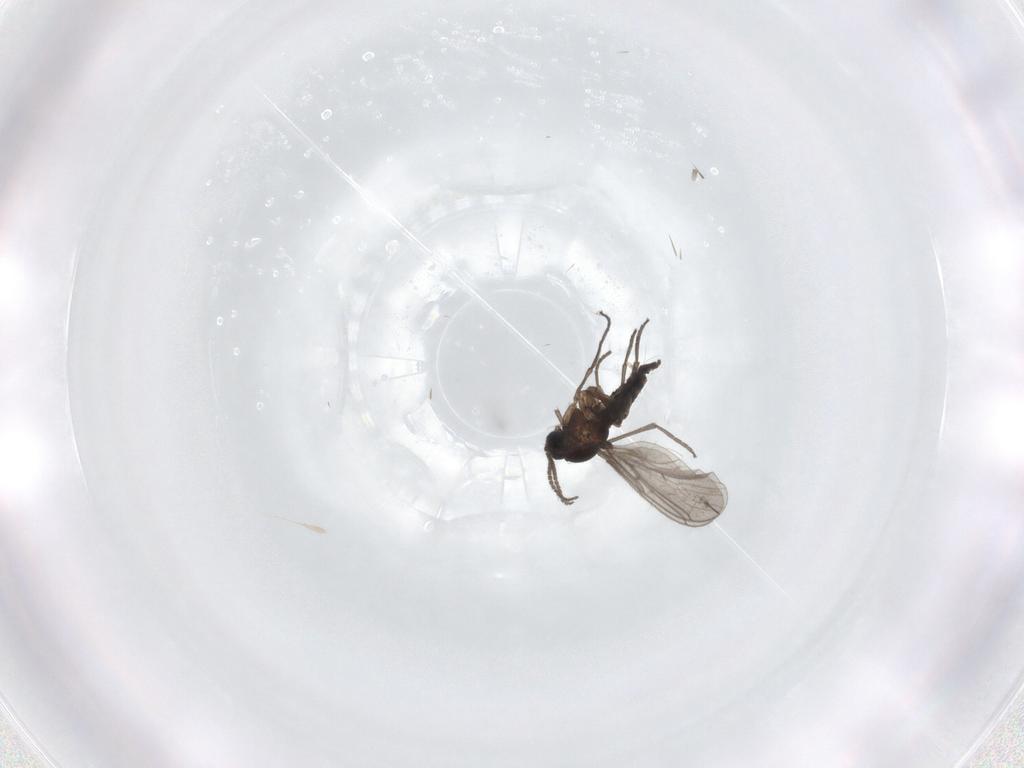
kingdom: Animalia
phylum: Arthropoda
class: Insecta
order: Diptera
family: Sciaridae
